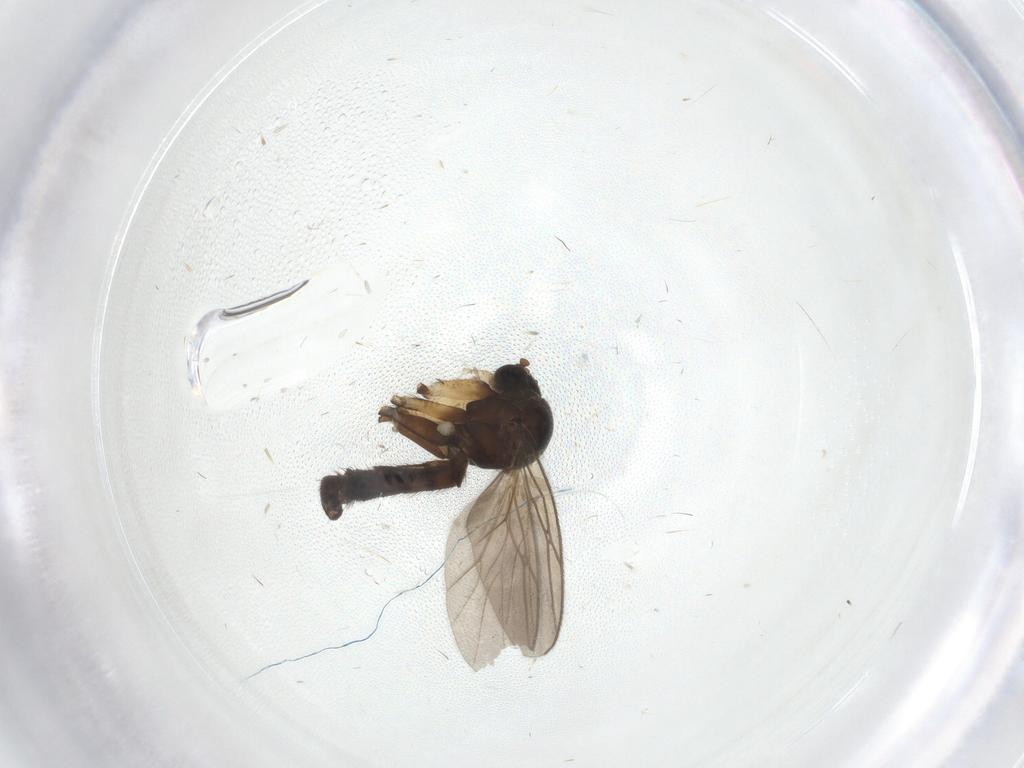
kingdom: Animalia
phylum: Arthropoda
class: Insecta
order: Diptera
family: Mycetophilidae
